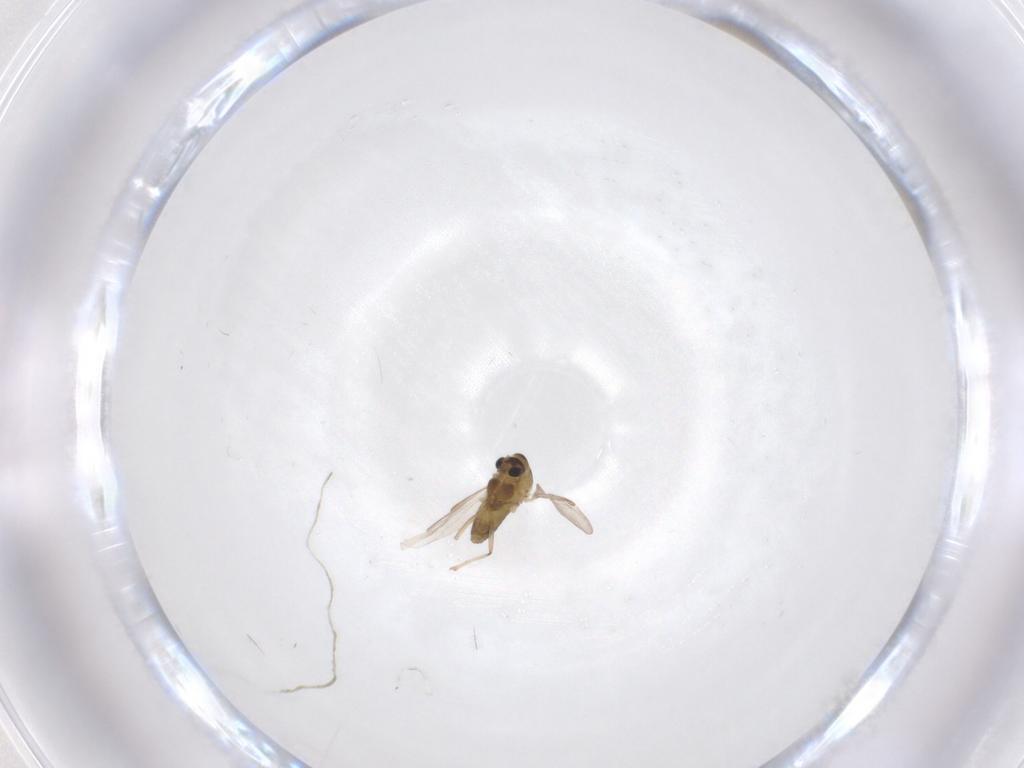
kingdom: Animalia
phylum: Arthropoda
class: Insecta
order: Diptera
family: Chironomidae
